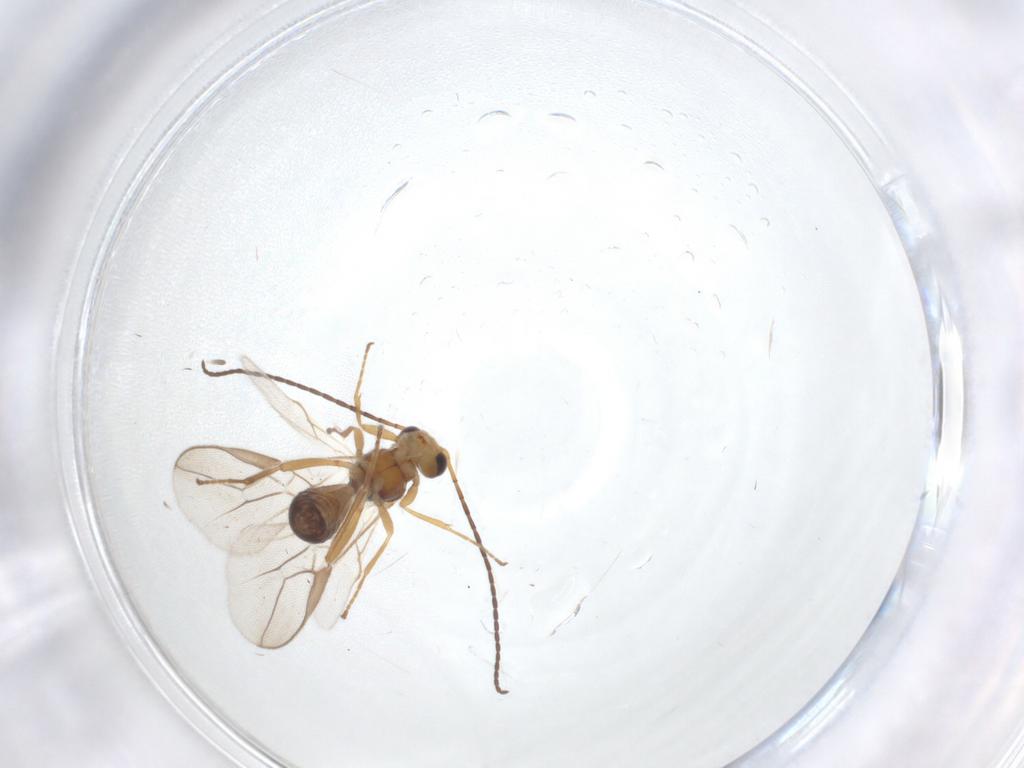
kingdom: Animalia
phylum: Arthropoda
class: Insecta
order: Hymenoptera
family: Braconidae
